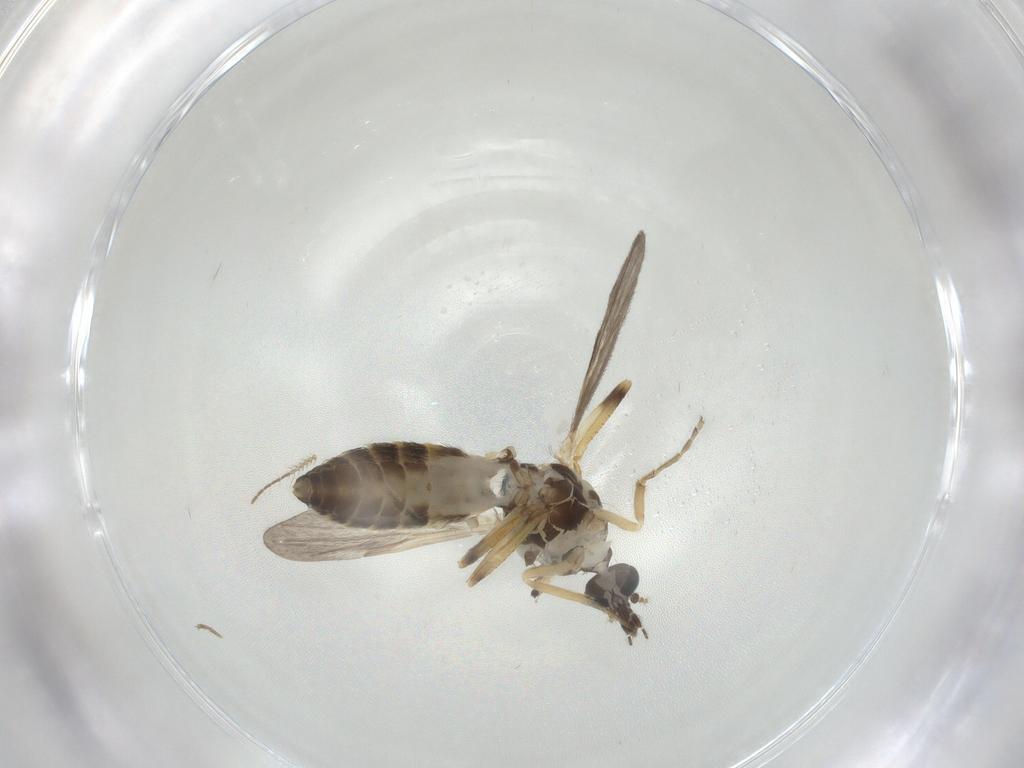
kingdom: Animalia
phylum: Arthropoda
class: Insecta
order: Diptera
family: Ceratopogonidae
